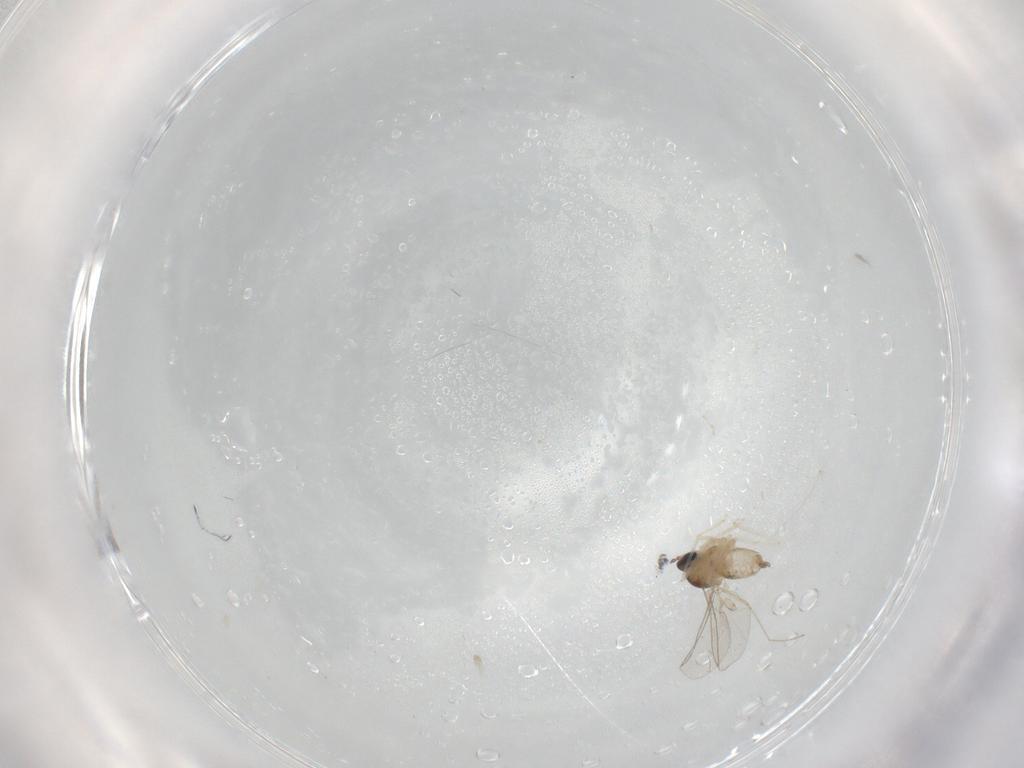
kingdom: Animalia
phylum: Arthropoda
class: Insecta
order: Diptera
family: Cecidomyiidae
